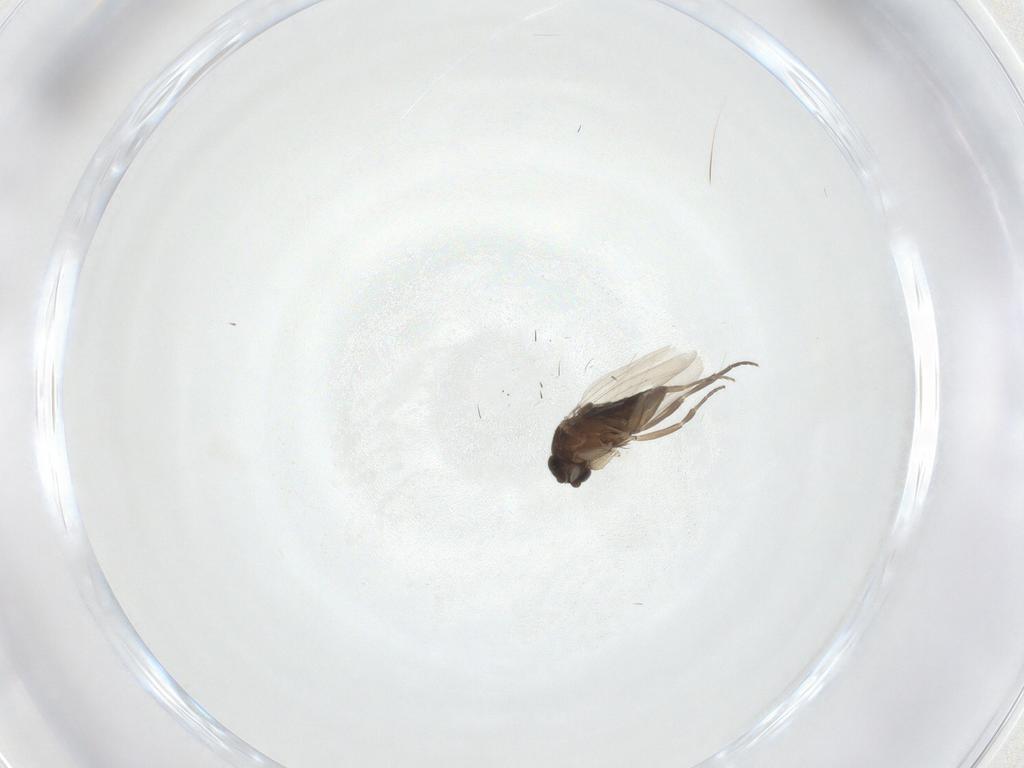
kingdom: Animalia
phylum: Arthropoda
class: Insecta
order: Diptera
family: Phoridae
